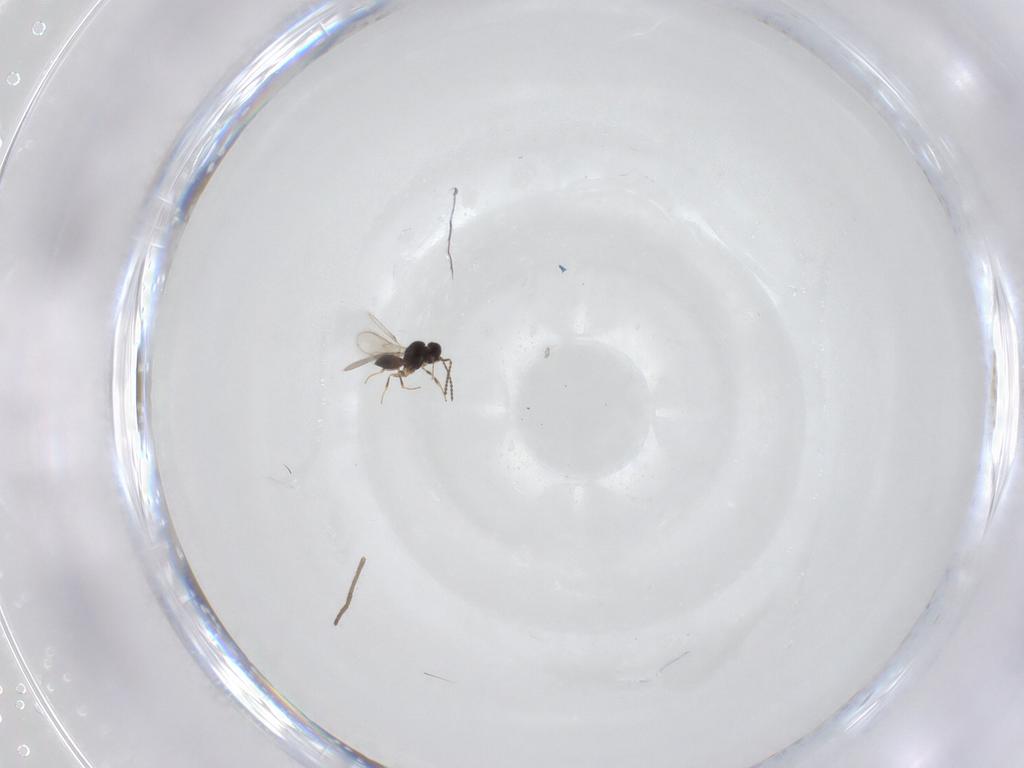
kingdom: Animalia
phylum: Arthropoda
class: Insecta
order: Hymenoptera
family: Scelionidae
